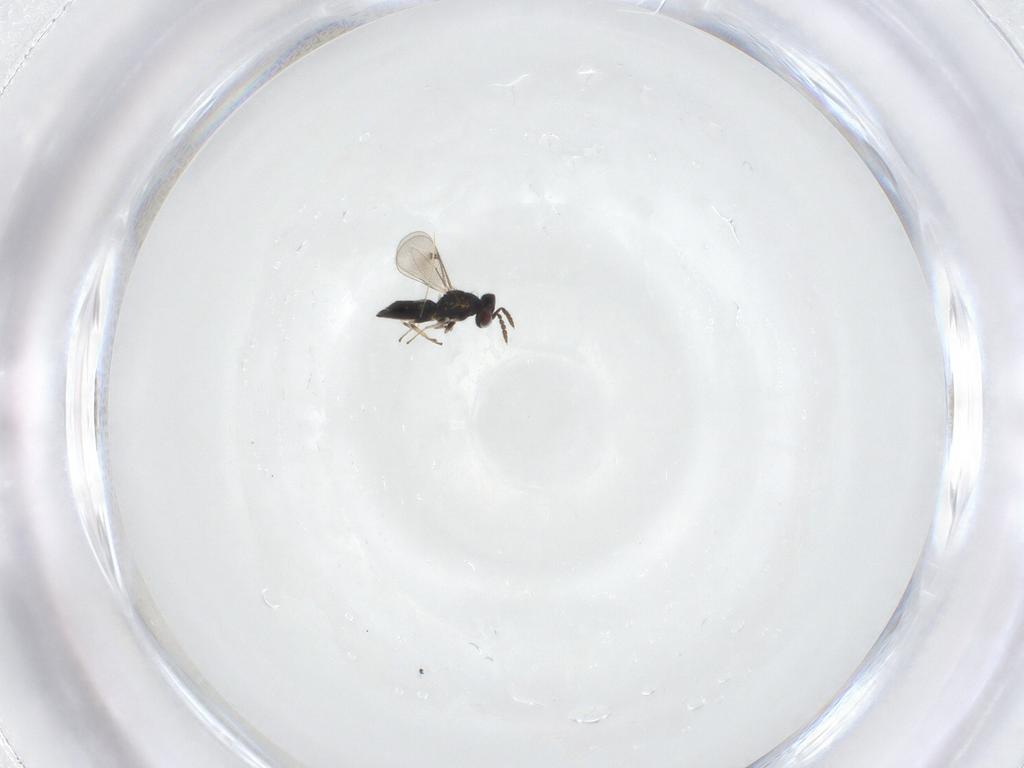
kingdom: Animalia
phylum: Arthropoda
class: Insecta
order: Hymenoptera
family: Eulophidae
